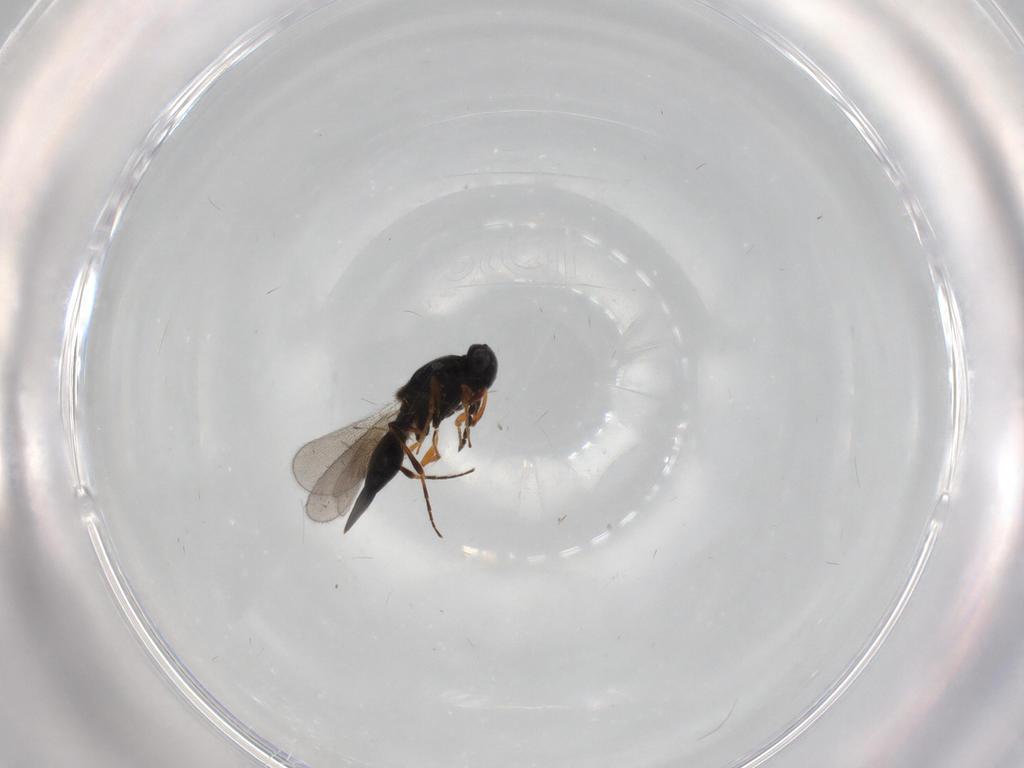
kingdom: Animalia
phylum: Arthropoda
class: Insecta
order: Hymenoptera
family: Platygastridae
